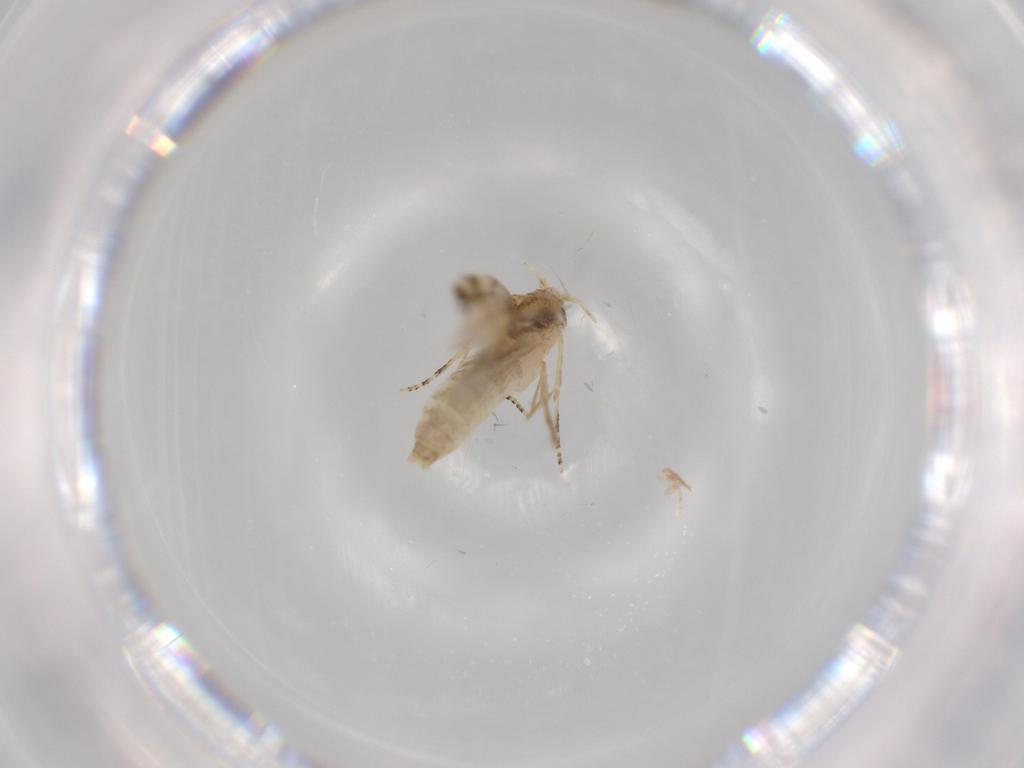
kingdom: Animalia
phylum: Arthropoda
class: Insecta
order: Lepidoptera
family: Bucculatricidae
